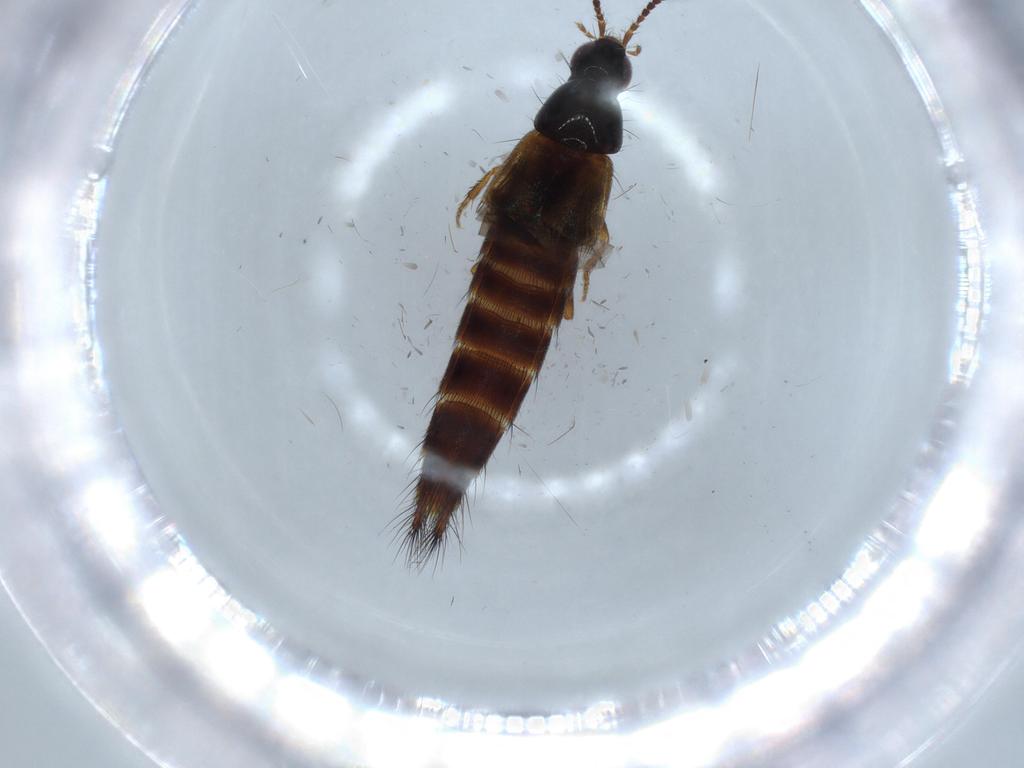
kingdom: Animalia
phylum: Arthropoda
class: Insecta
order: Coleoptera
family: Staphylinidae
